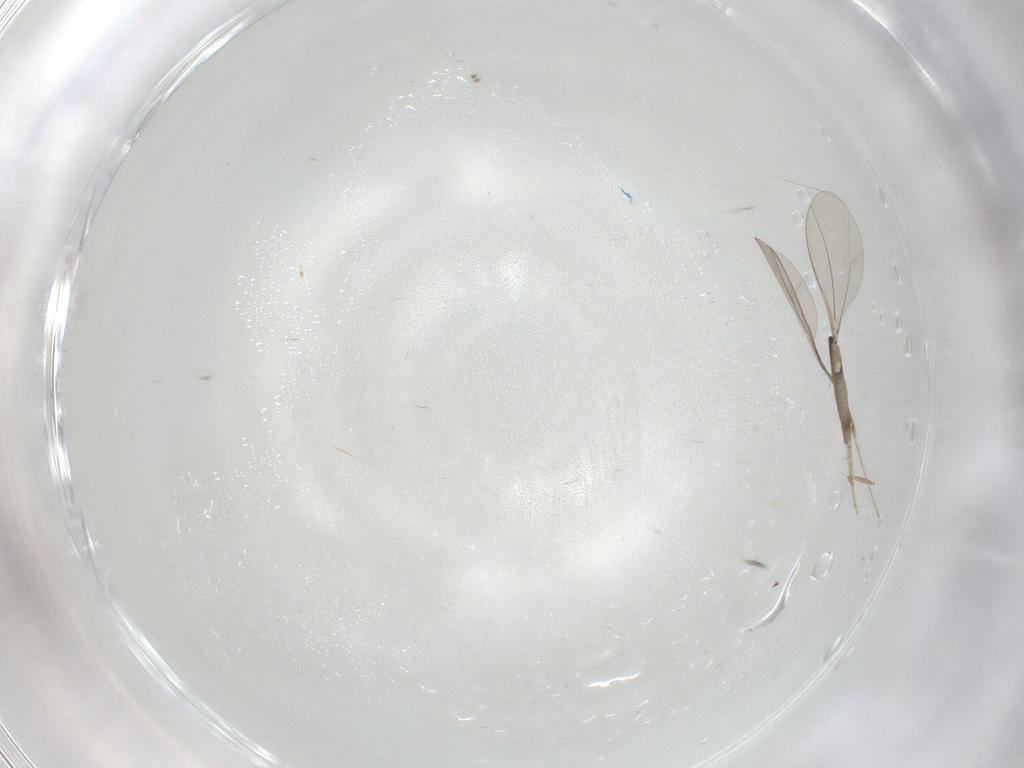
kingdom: Animalia
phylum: Arthropoda
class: Insecta
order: Diptera
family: Cecidomyiidae
